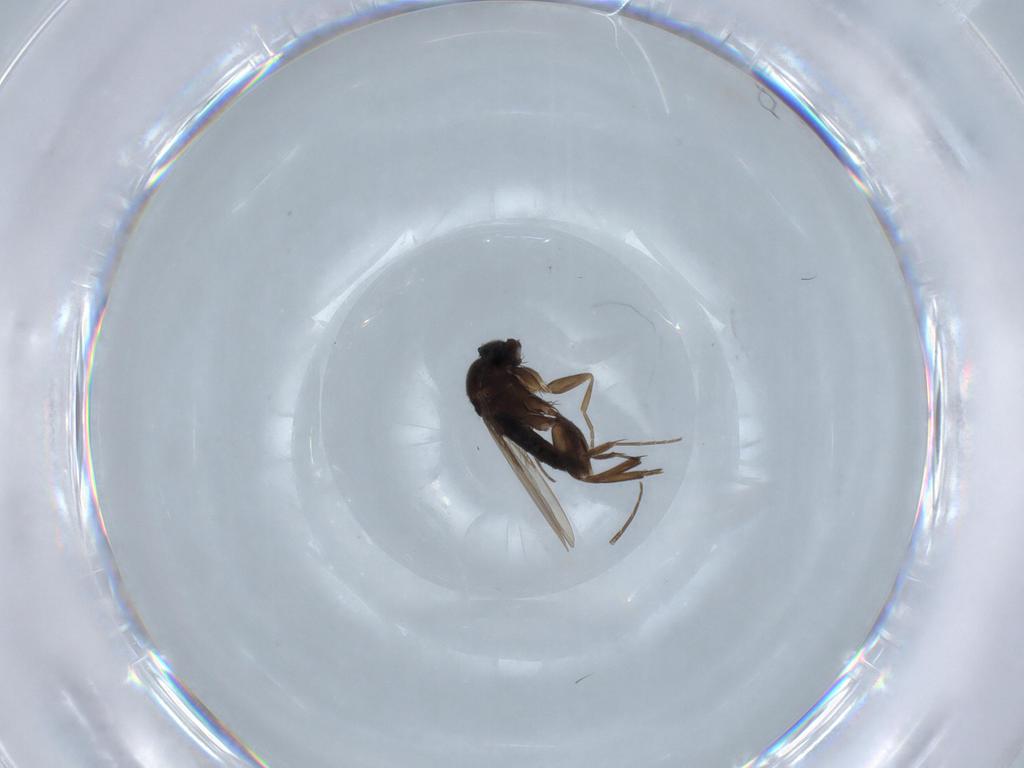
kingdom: Animalia
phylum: Arthropoda
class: Insecta
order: Diptera
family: Phoridae
